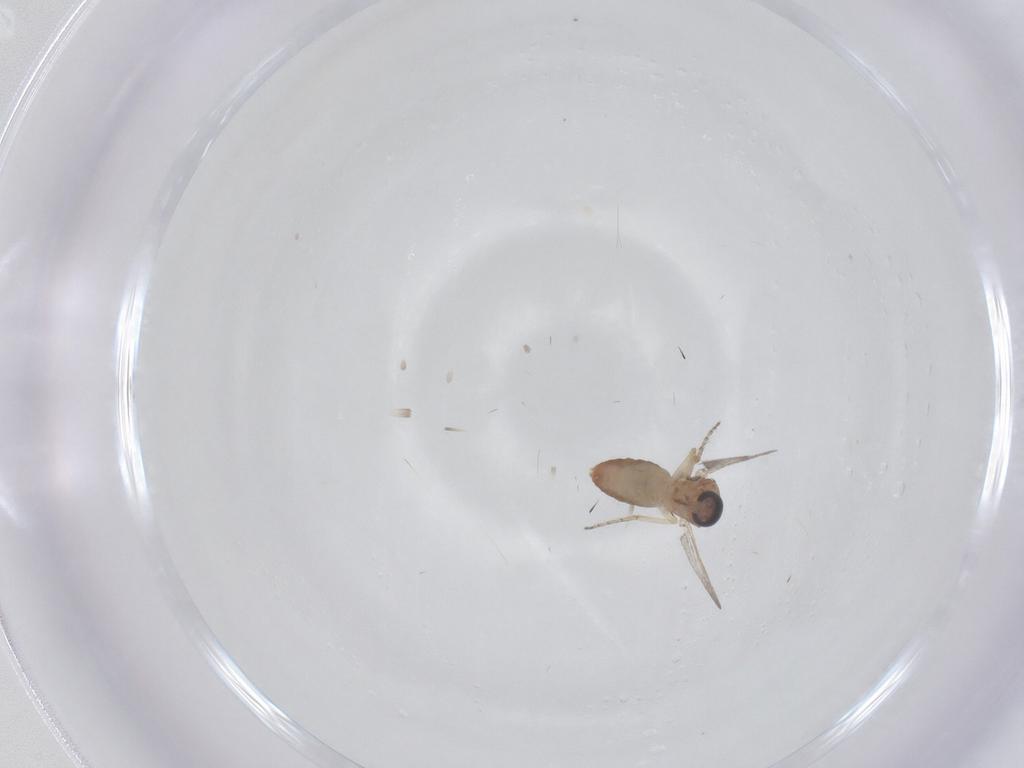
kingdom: Animalia
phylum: Arthropoda
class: Insecta
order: Diptera
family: Ceratopogonidae
